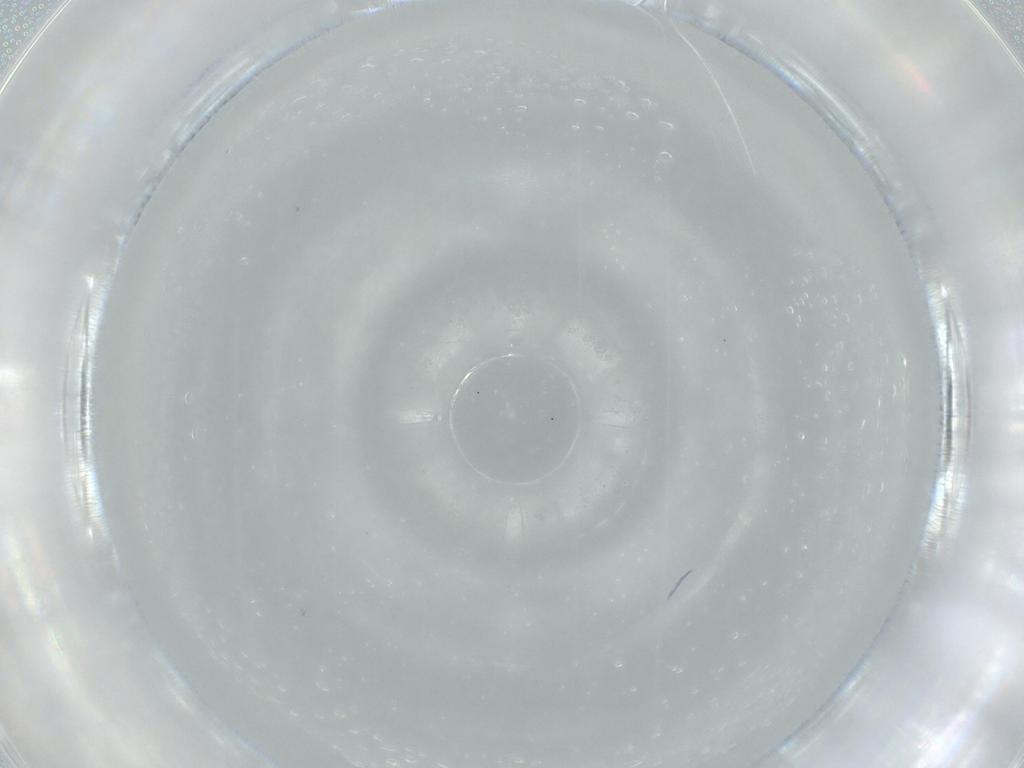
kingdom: Animalia
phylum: Arthropoda
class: Insecta
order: Diptera
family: Cecidomyiidae
